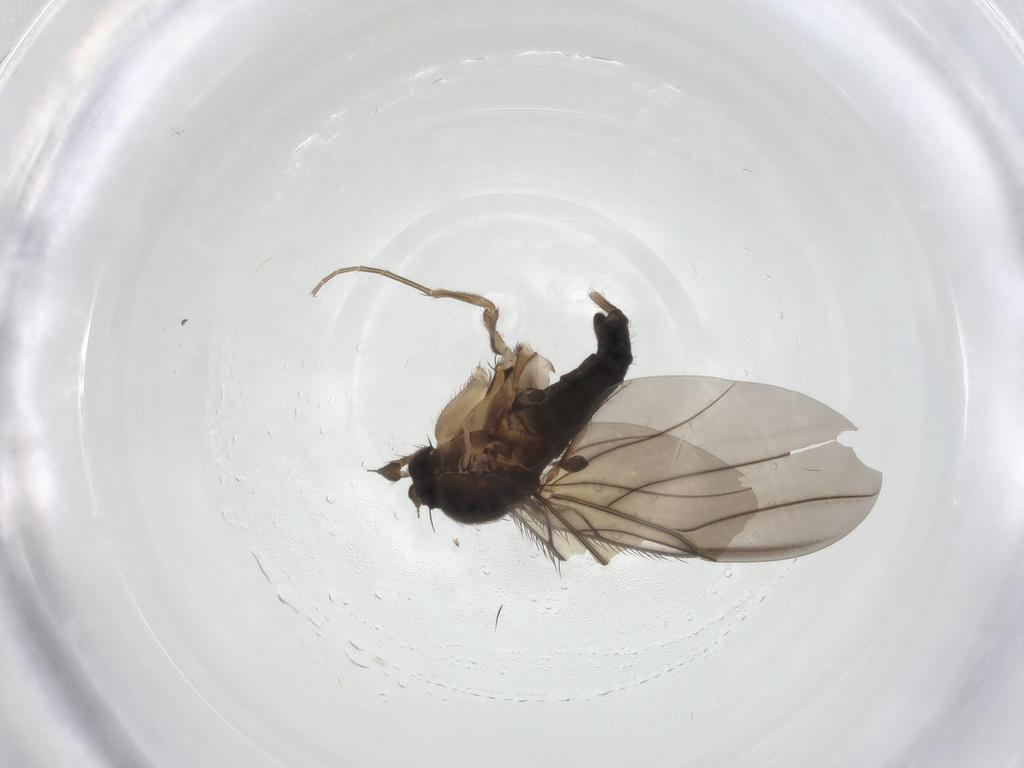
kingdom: Animalia
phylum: Arthropoda
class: Insecta
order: Diptera
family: Phoridae
